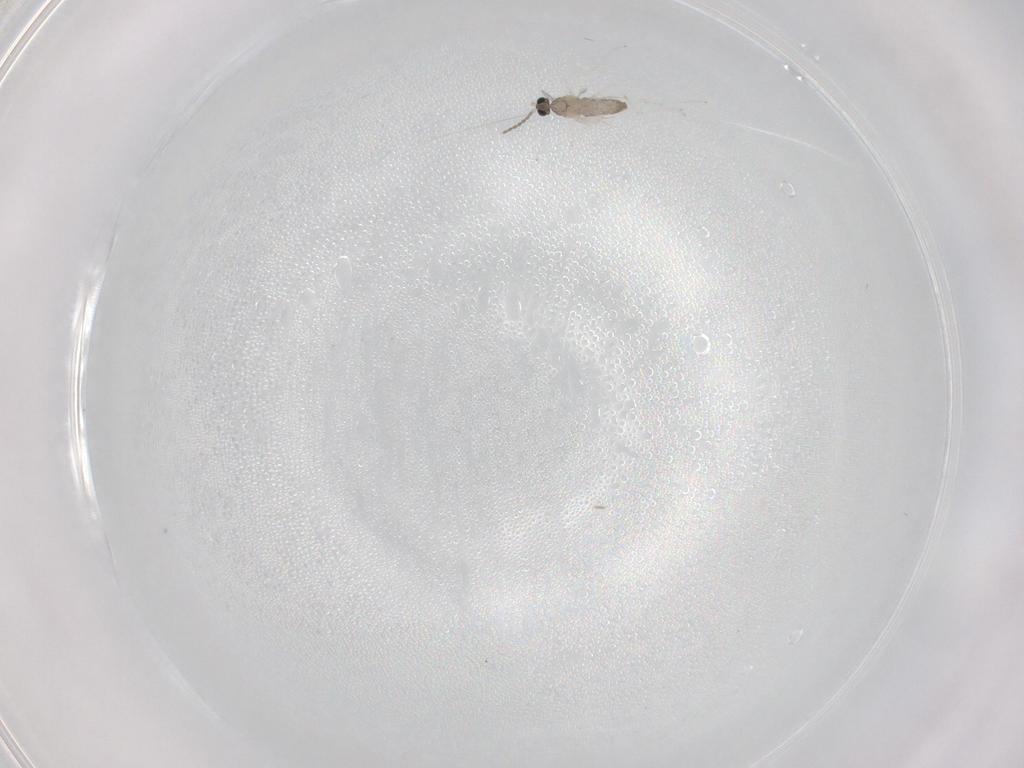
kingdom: Animalia
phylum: Arthropoda
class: Insecta
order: Diptera
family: Cecidomyiidae
